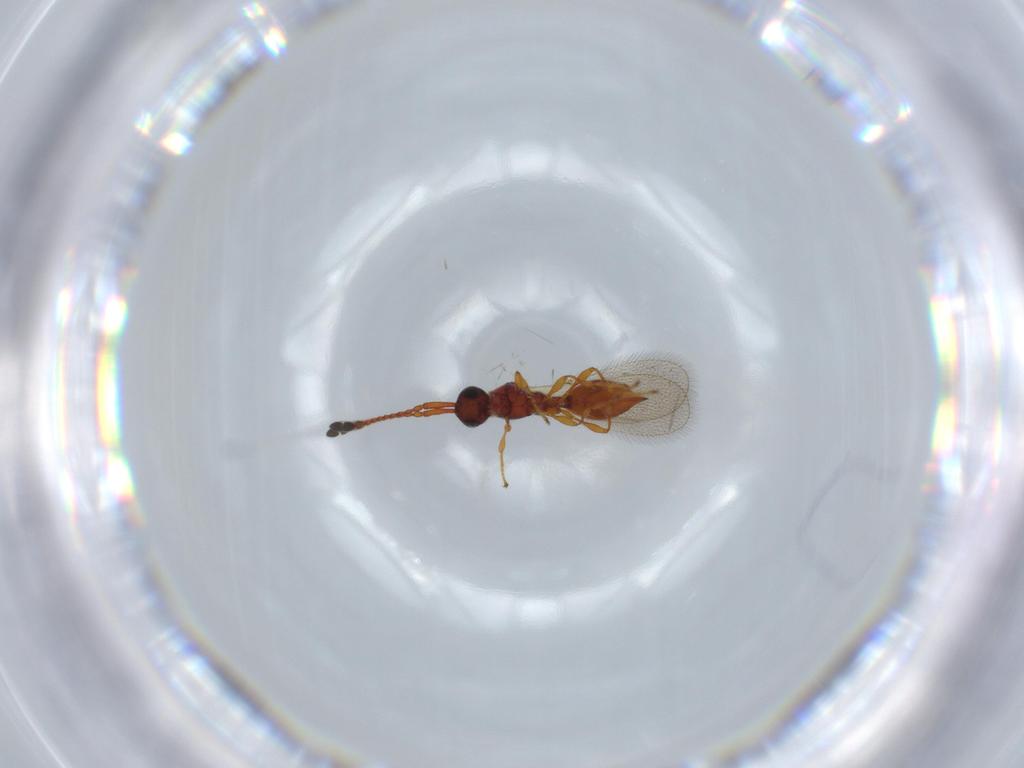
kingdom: Animalia
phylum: Arthropoda
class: Insecta
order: Hymenoptera
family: Diapriidae
